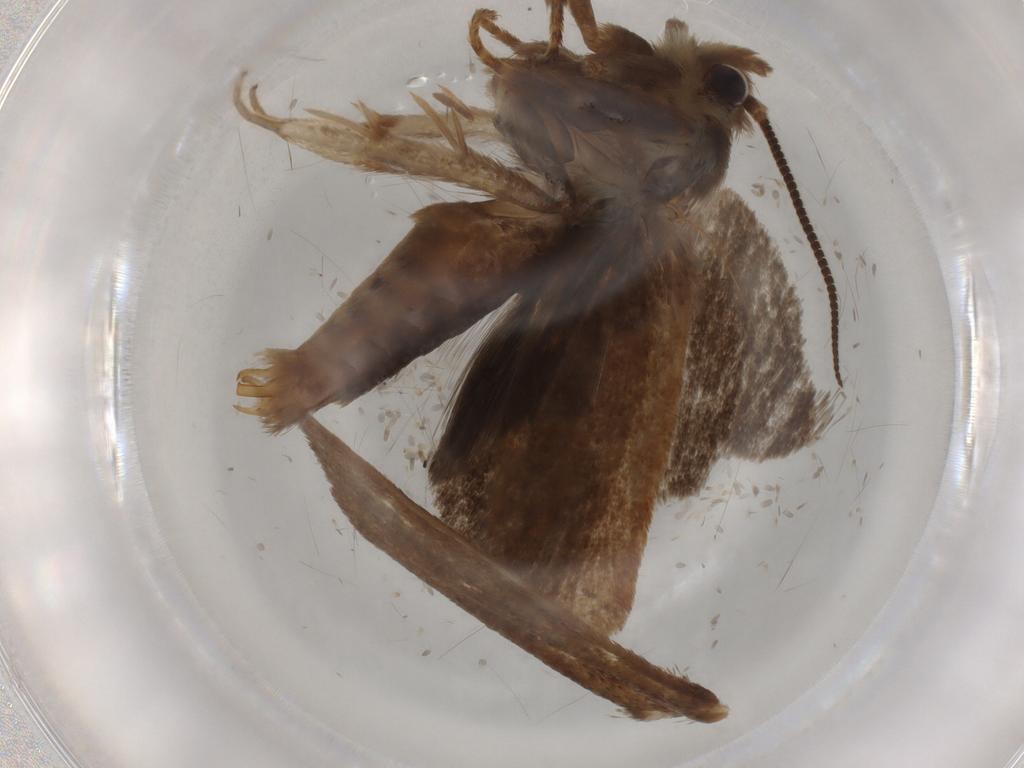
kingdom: Animalia
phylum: Arthropoda
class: Insecta
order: Lepidoptera
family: Tineidae
